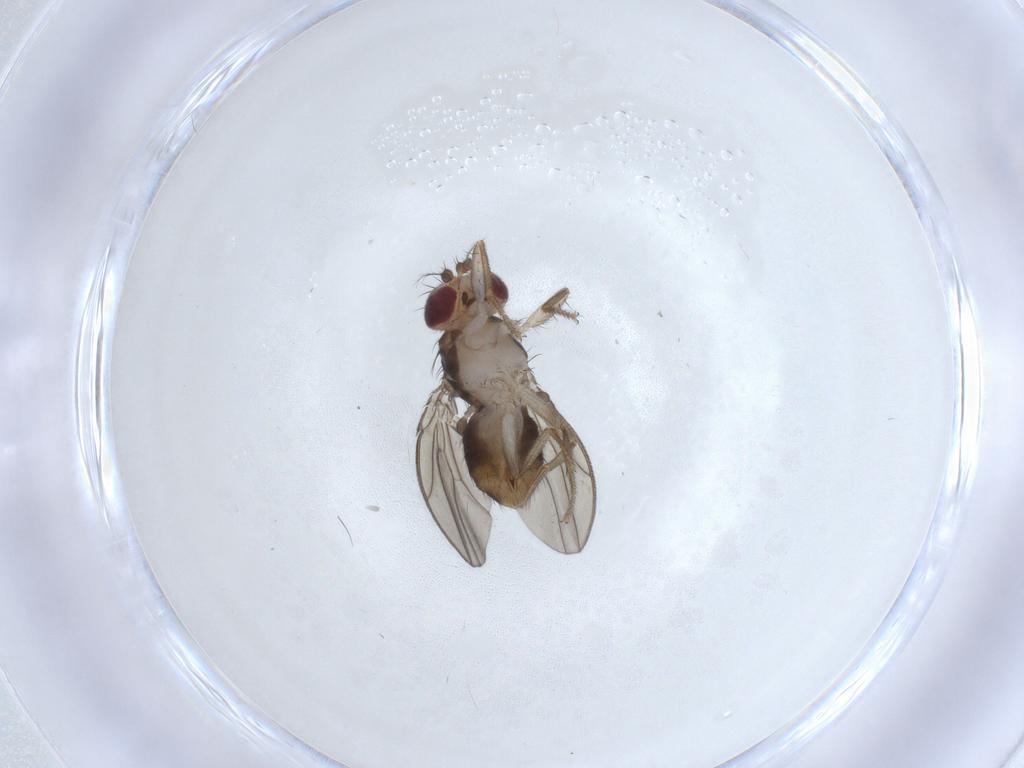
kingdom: Animalia
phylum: Arthropoda
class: Insecta
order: Diptera
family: Drosophilidae
